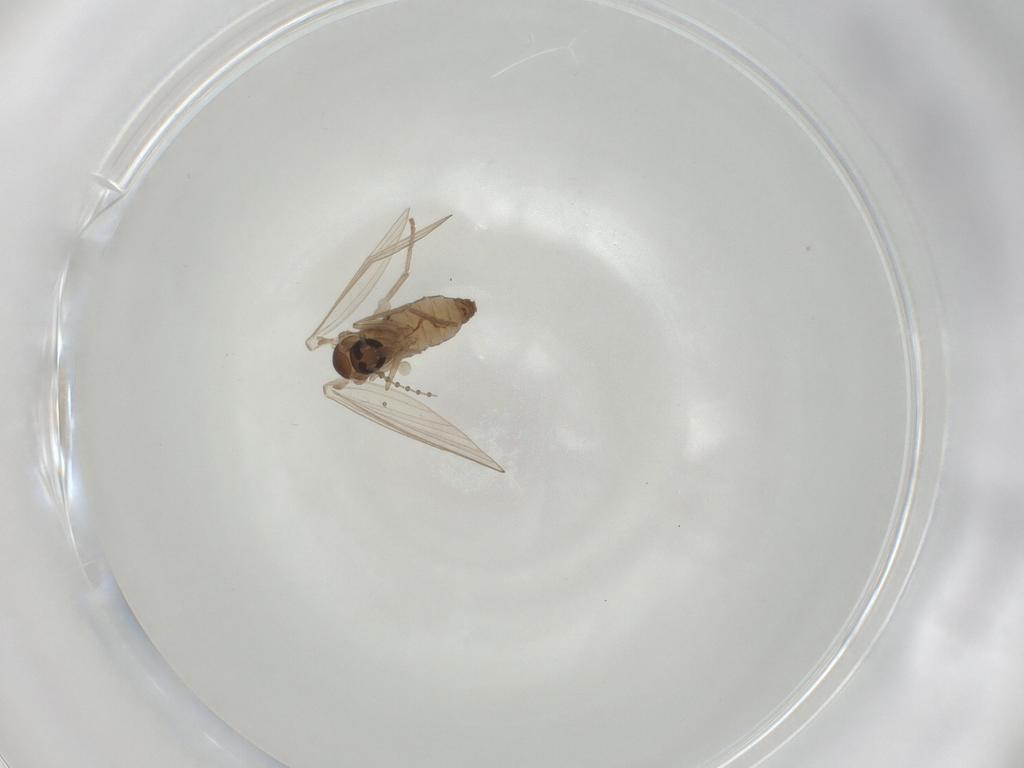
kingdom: Animalia
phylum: Arthropoda
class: Insecta
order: Diptera
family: Psychodidae
